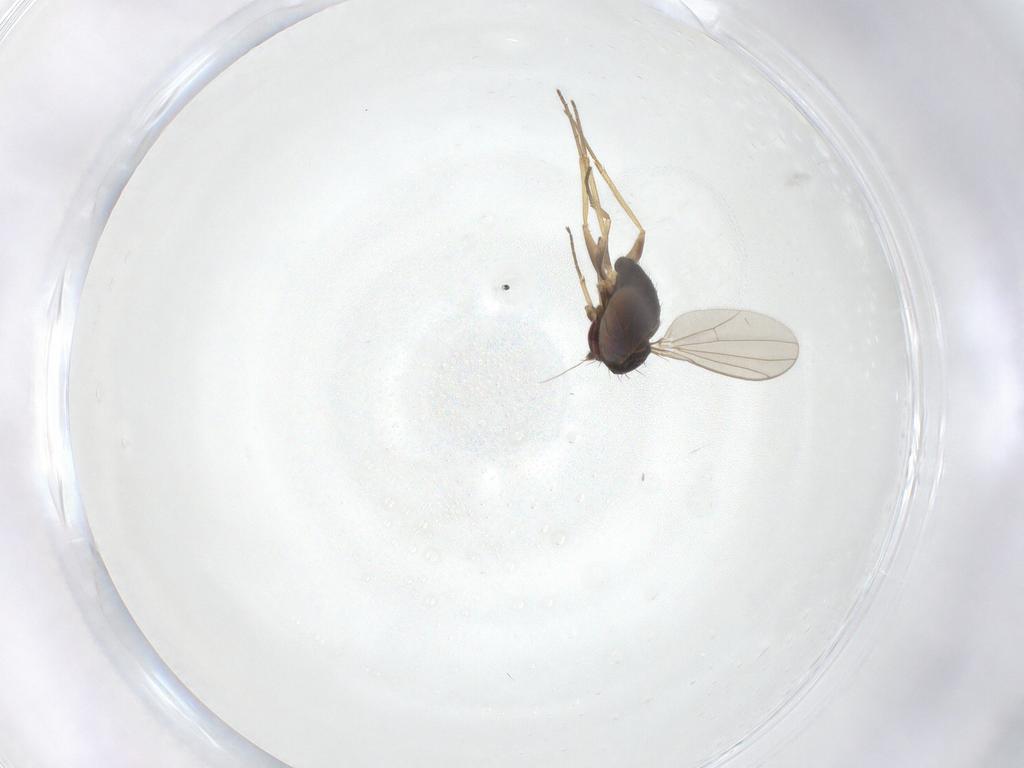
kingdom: Animalia
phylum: Arthropoda
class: Insecta
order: Diptera
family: Dolichopodidae
